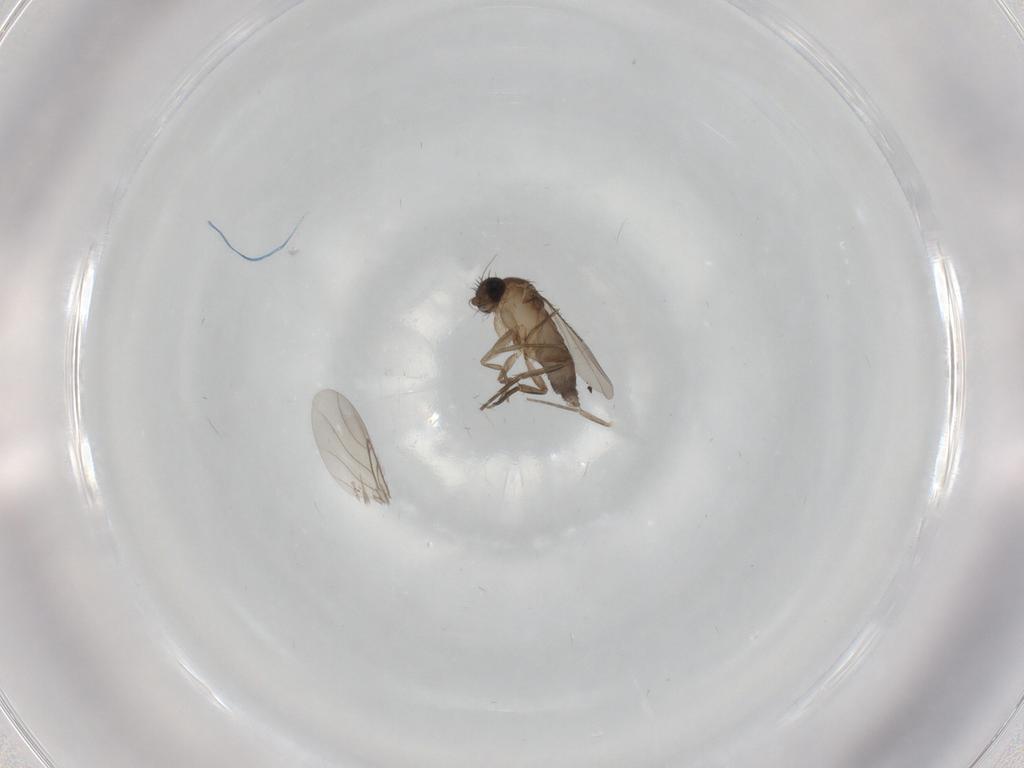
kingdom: Animalia
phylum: Arthropoda
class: Insecta
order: Diptera
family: Phoridae
